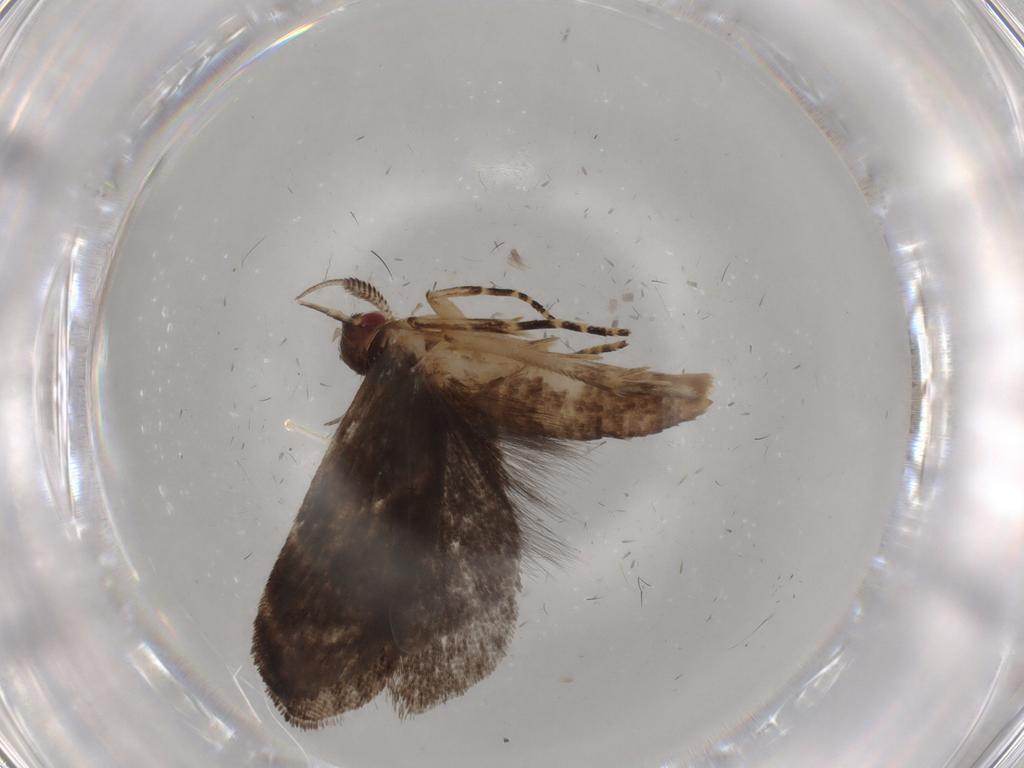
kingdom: Animalia
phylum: Arthropoda
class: Insecta
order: Lepidoptera
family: Gelechiidae
